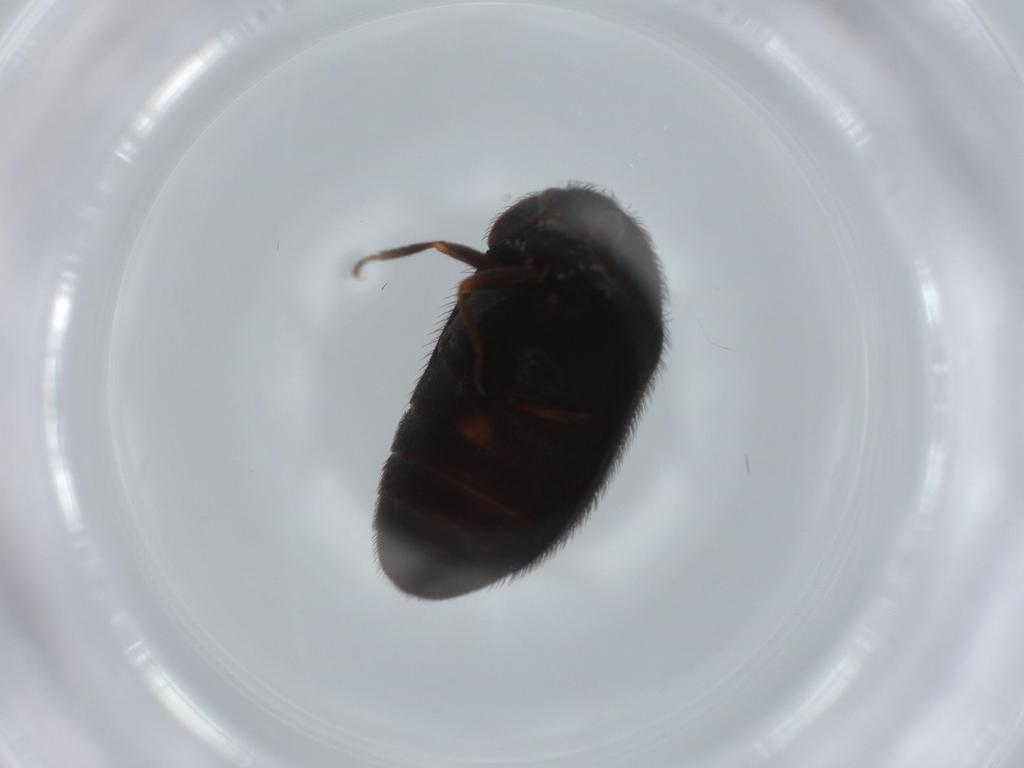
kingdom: Animalia
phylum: Arthropoda
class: Insecta
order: Coleoptera
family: Dermestidae
